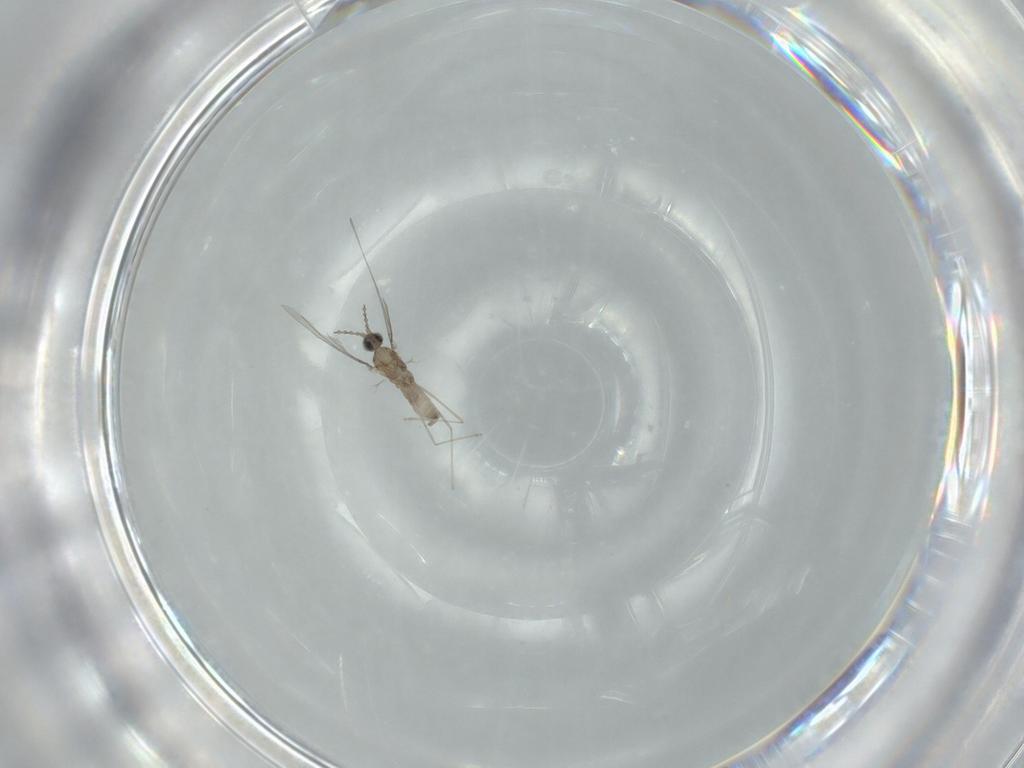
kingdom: Animalia
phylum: Arthropoda
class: Insecta
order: Diptera
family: Cecidomyiidae
